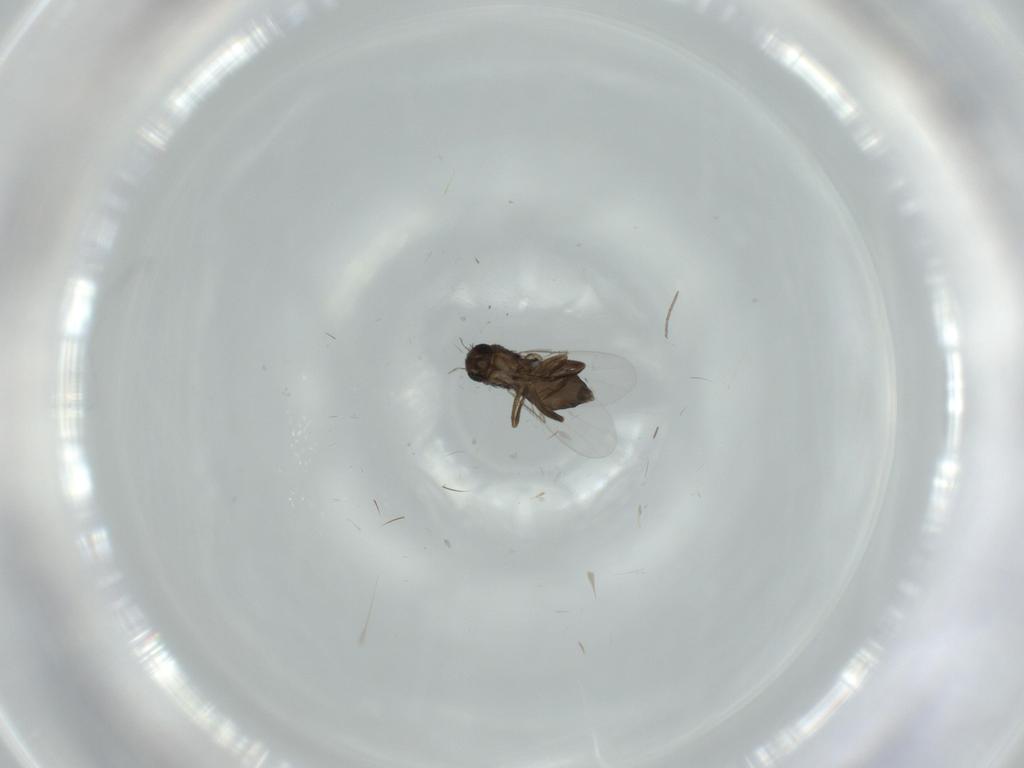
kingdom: Animalia
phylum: Arthropoda
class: Insecta
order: Diptera
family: Phoridae
